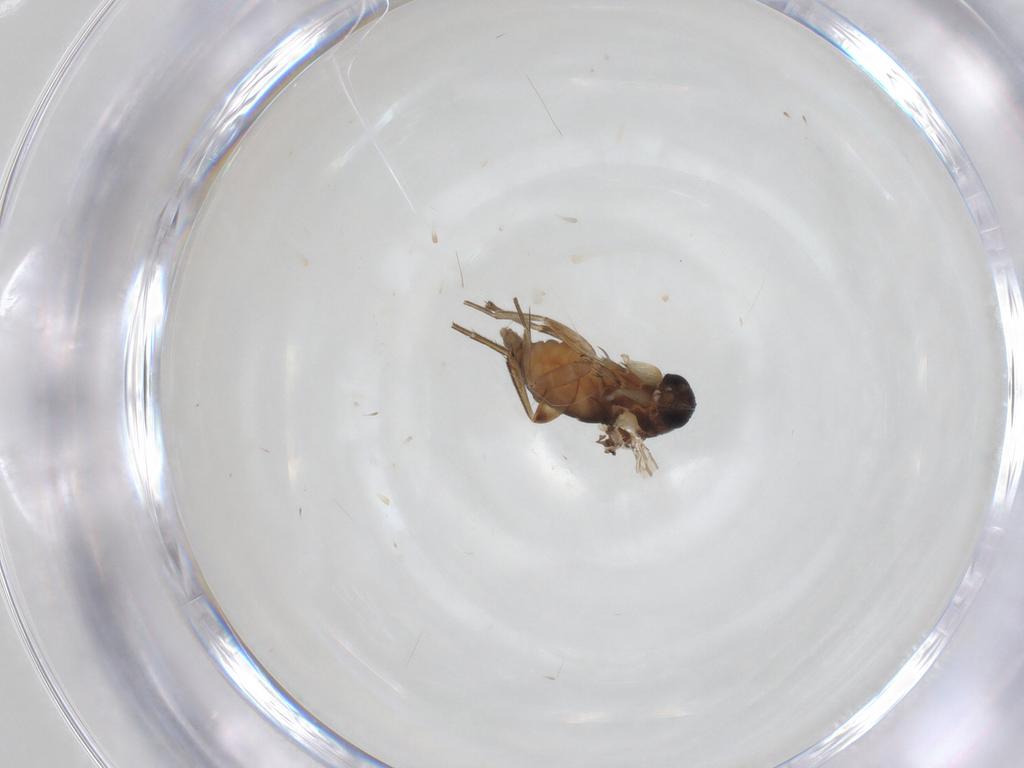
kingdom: Animalia
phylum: Arthropoda
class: Insecta
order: Diptera
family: Phoridae
